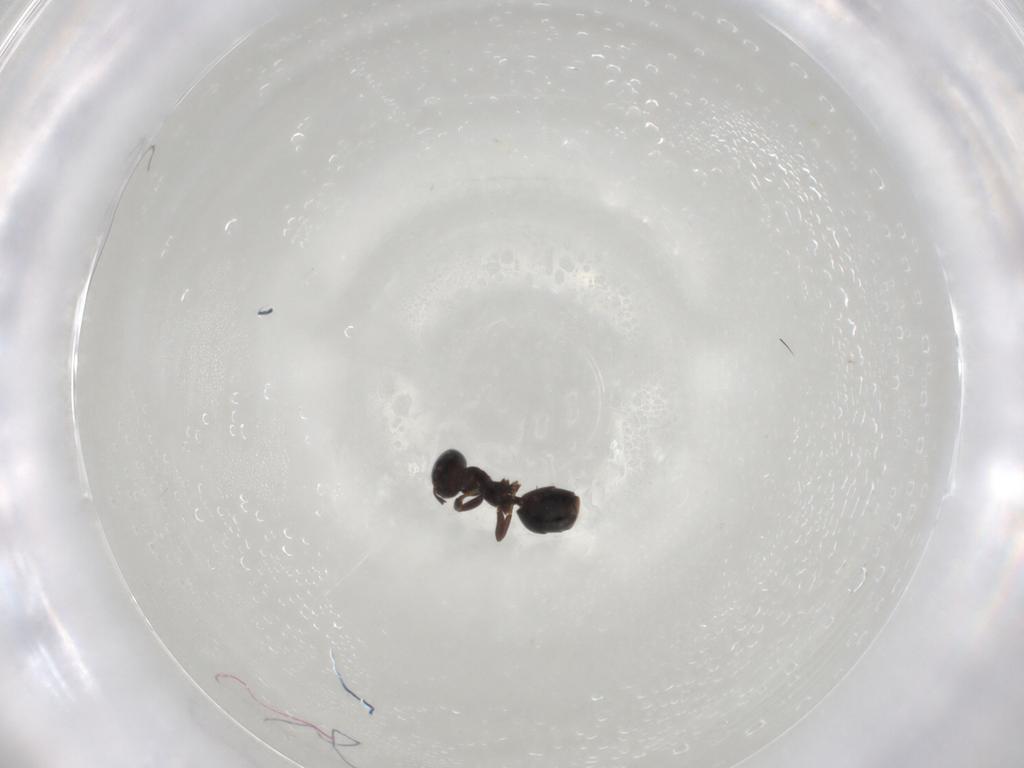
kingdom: Animalia
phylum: Arthropoda
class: Insecta
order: Hymenoptera
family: Formicidae
